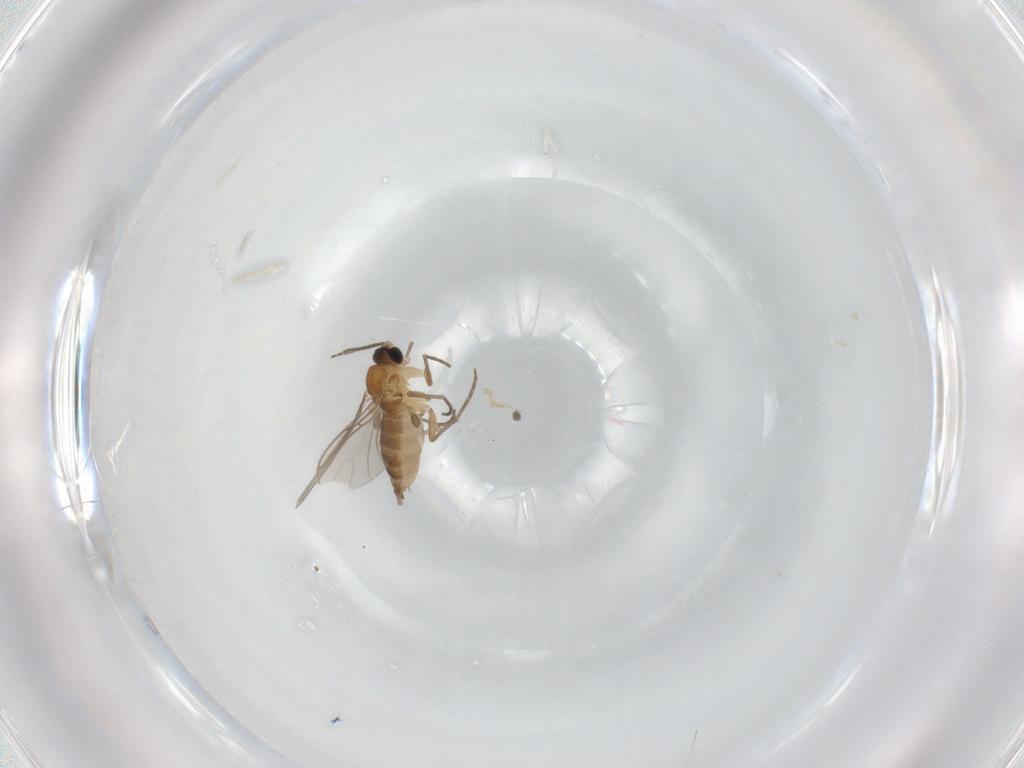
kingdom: Animalia
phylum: Arthropoda
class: Insecta
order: Diptera
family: Sciaridae
